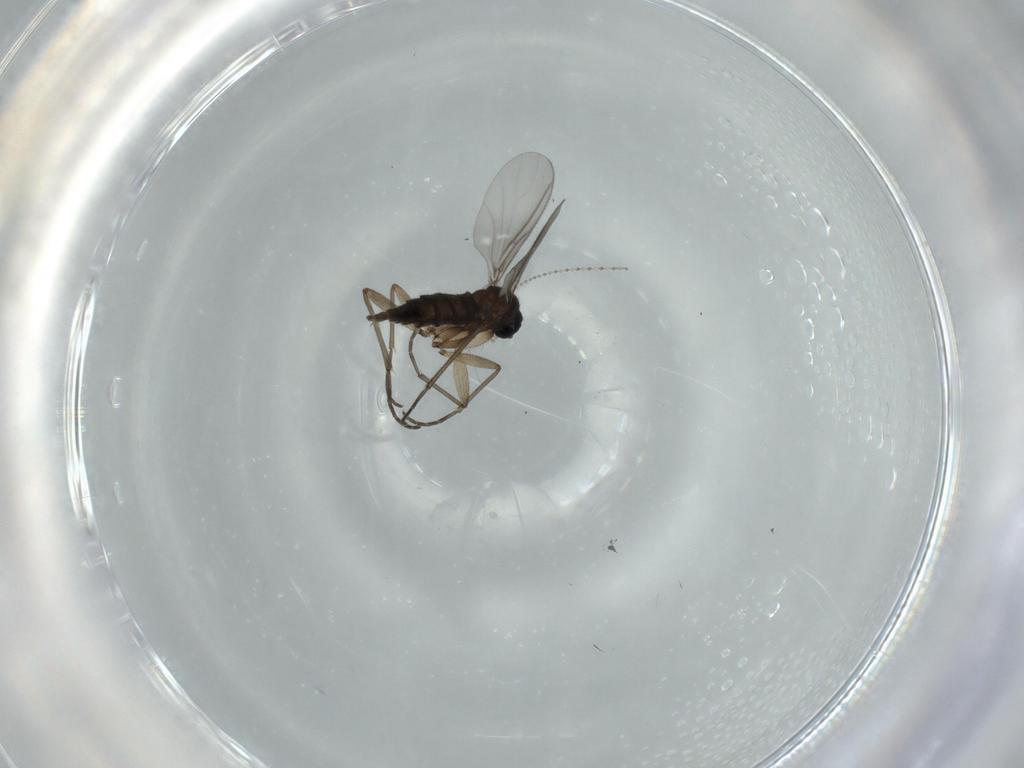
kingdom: Animalia
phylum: Arthropoda
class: Insecta
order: Diptera
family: Sciaridae
